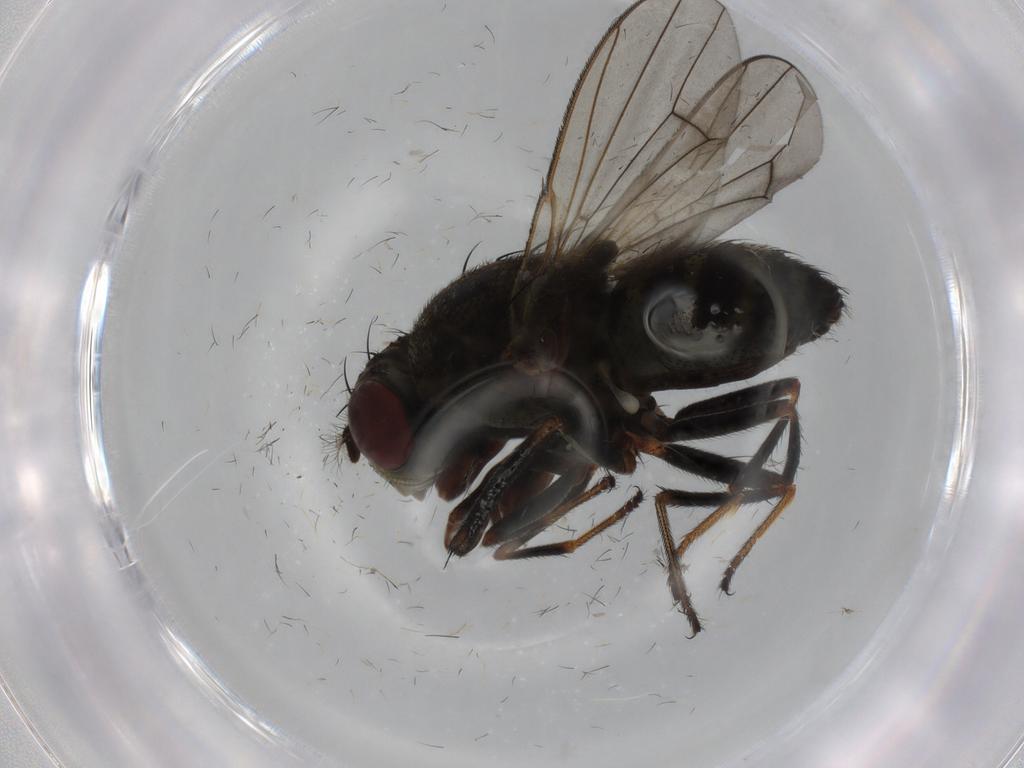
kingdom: Animalia
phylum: Arthropoda
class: Insecta
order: Diptera
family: Ephydridae
